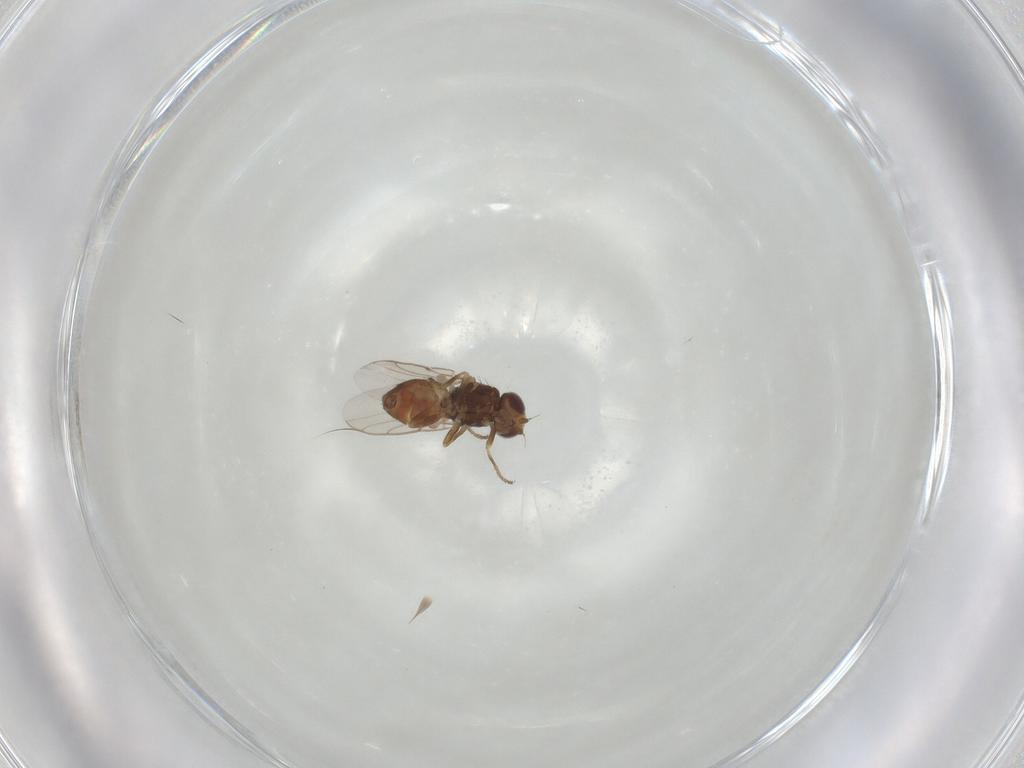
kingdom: Animalia
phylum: Arthropoda
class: Insecta
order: Diptera
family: Chloropidae
